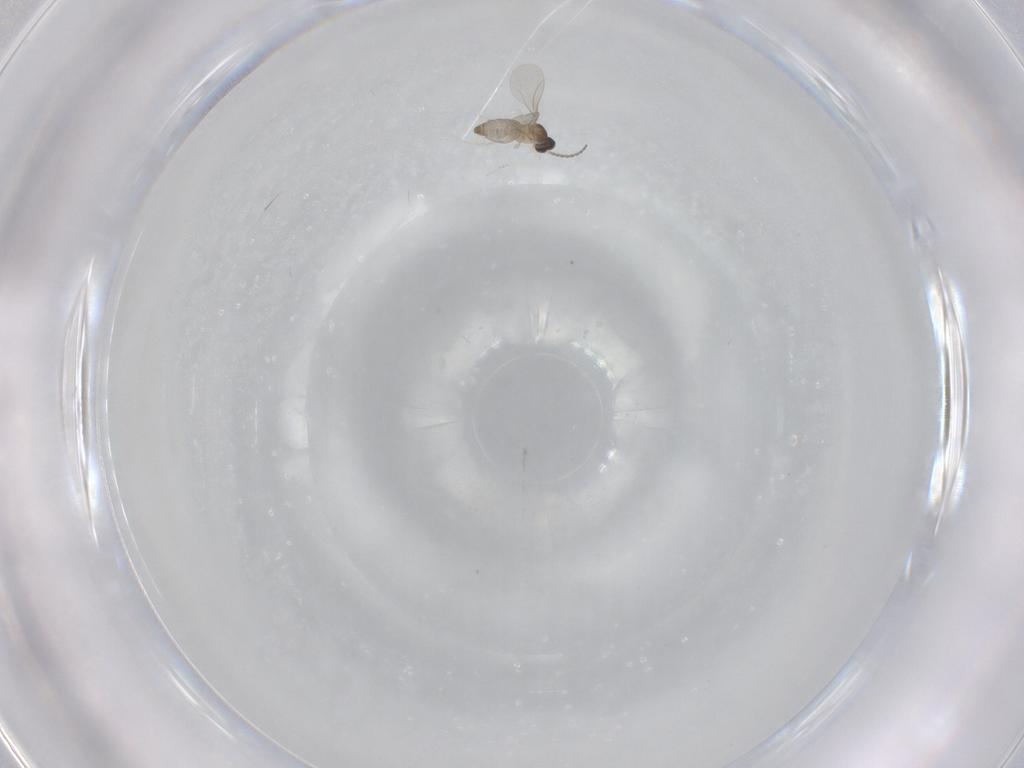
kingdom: Animalia
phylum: Arthropoda
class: Insecta
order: Diptera
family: Cecidomyiidae
